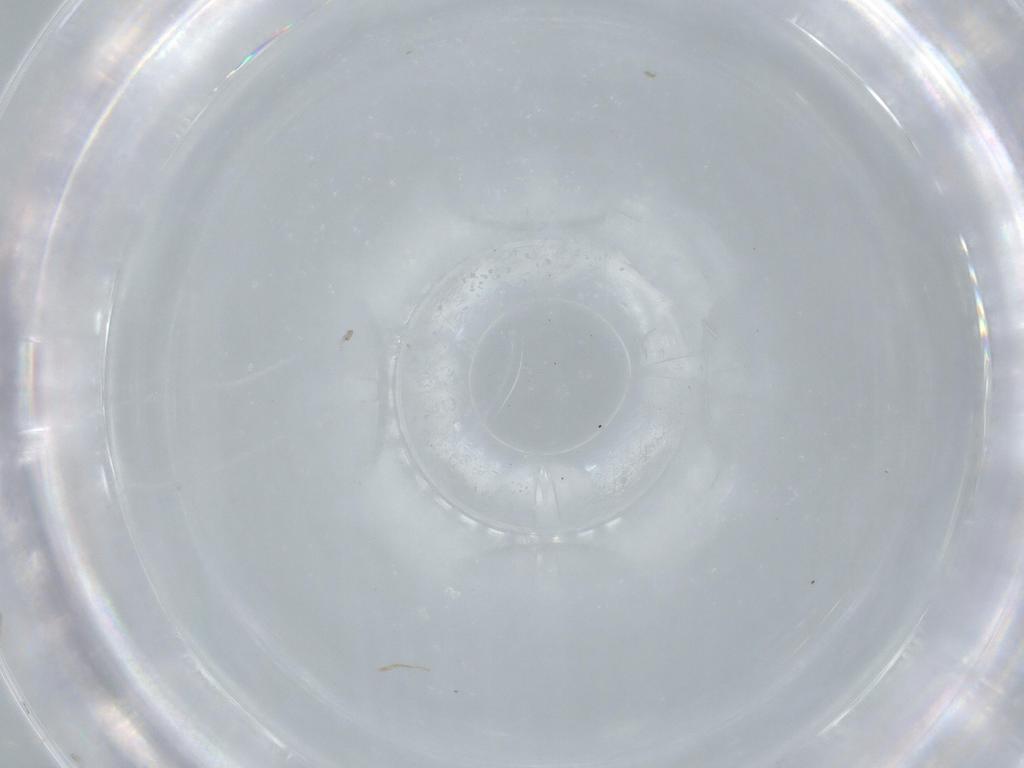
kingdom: Animalia
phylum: Arthropoda
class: Insecta
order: Dermaptera
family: Forficulidae
